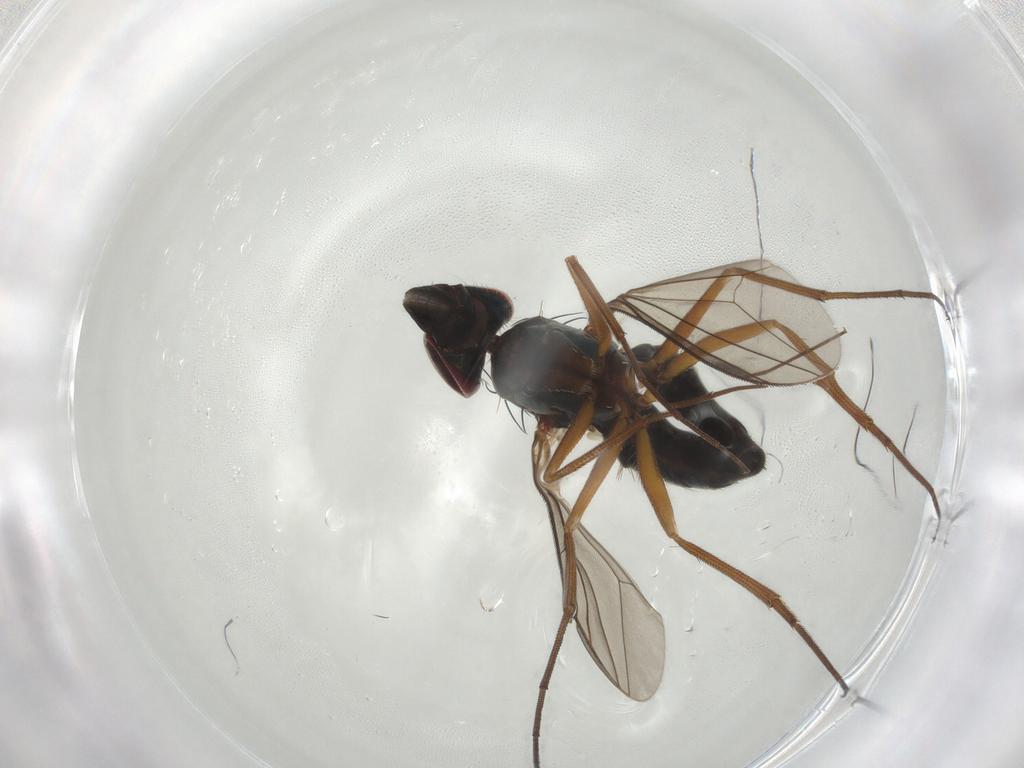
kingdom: Animalia
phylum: Arthropoda
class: Insecta
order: Diptera
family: Dolichopodidae
